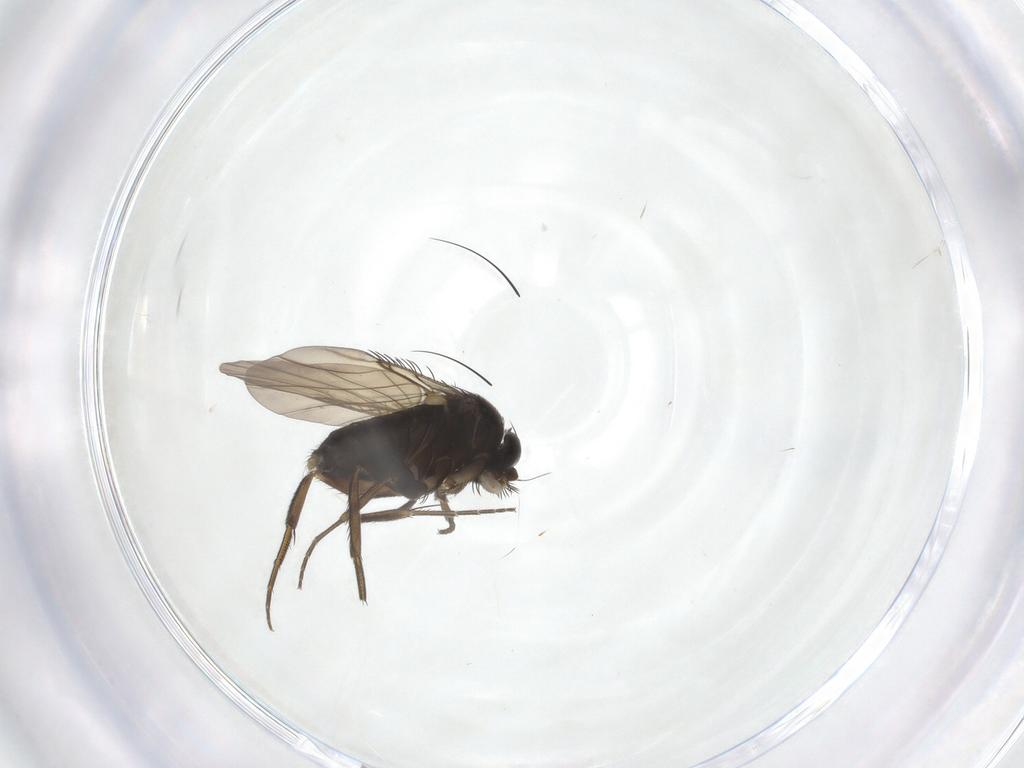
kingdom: Animalia
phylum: Arthropoda
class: Insecta
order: Diptera
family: Phoridae
